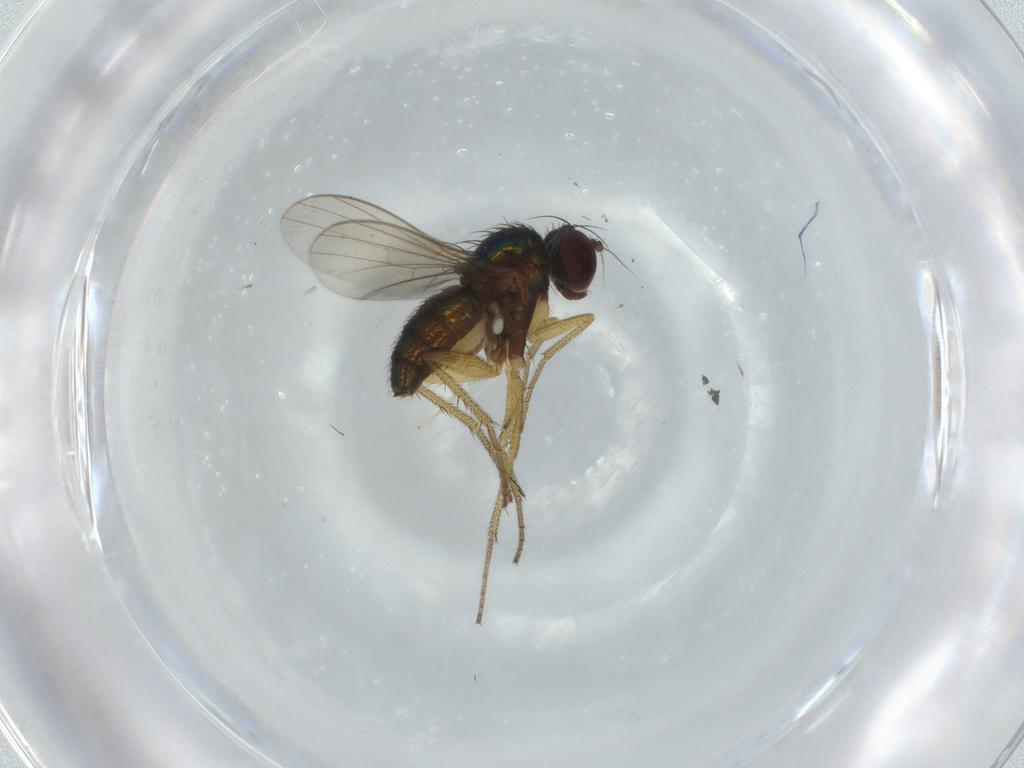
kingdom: Animalia
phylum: Arthropoda
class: Insecta
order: Diptera
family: Dolichopodidae
